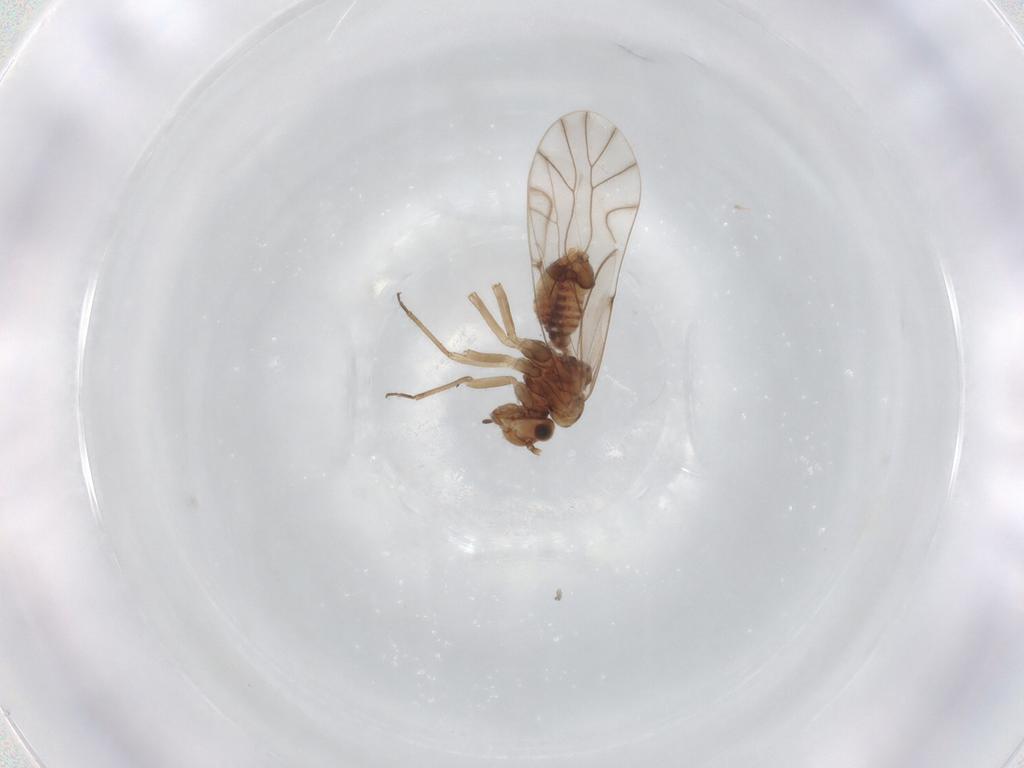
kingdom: Animalia
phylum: Arthropoda
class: Insecta
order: Psocodea
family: Lachesillidae
